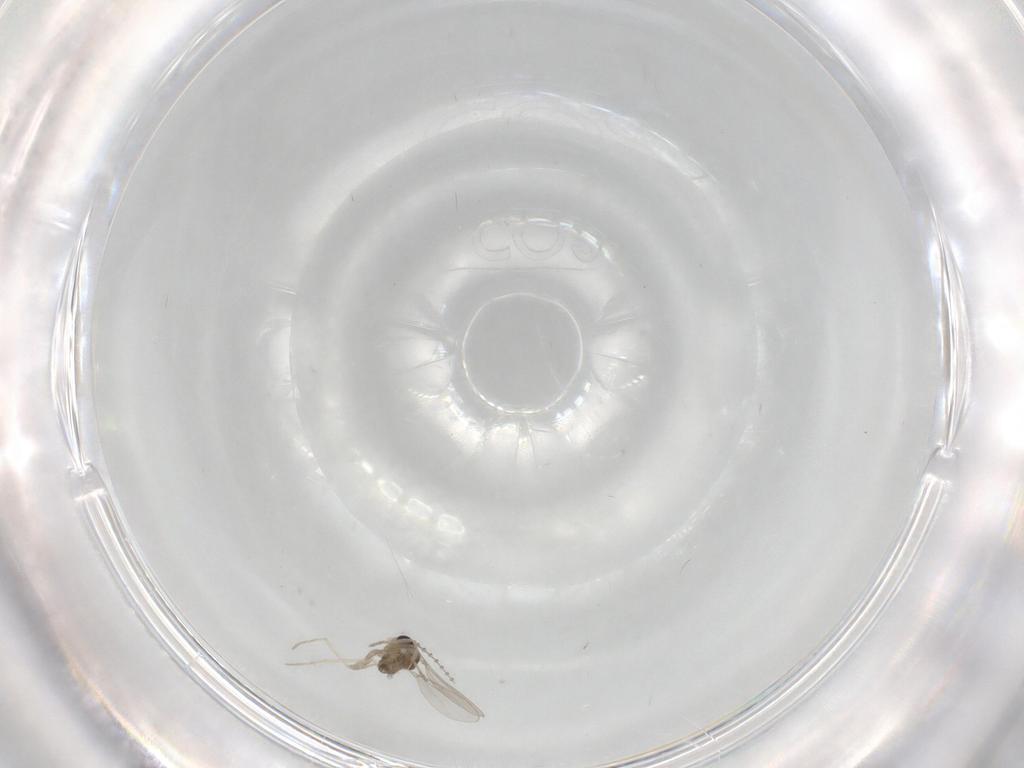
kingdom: Animalia
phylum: Arthropoda
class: Insecta
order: Diptera
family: Cecidomyiidae
